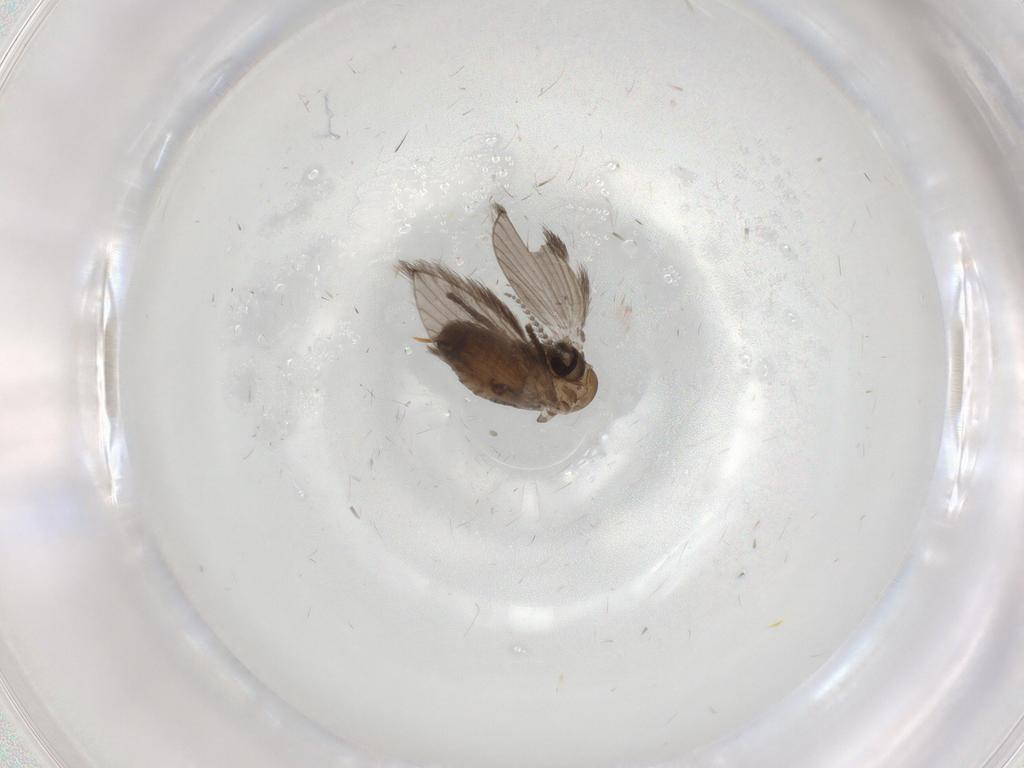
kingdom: Animalia
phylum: Arthropoda
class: Insecta
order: Diptera
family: Psychodidae
